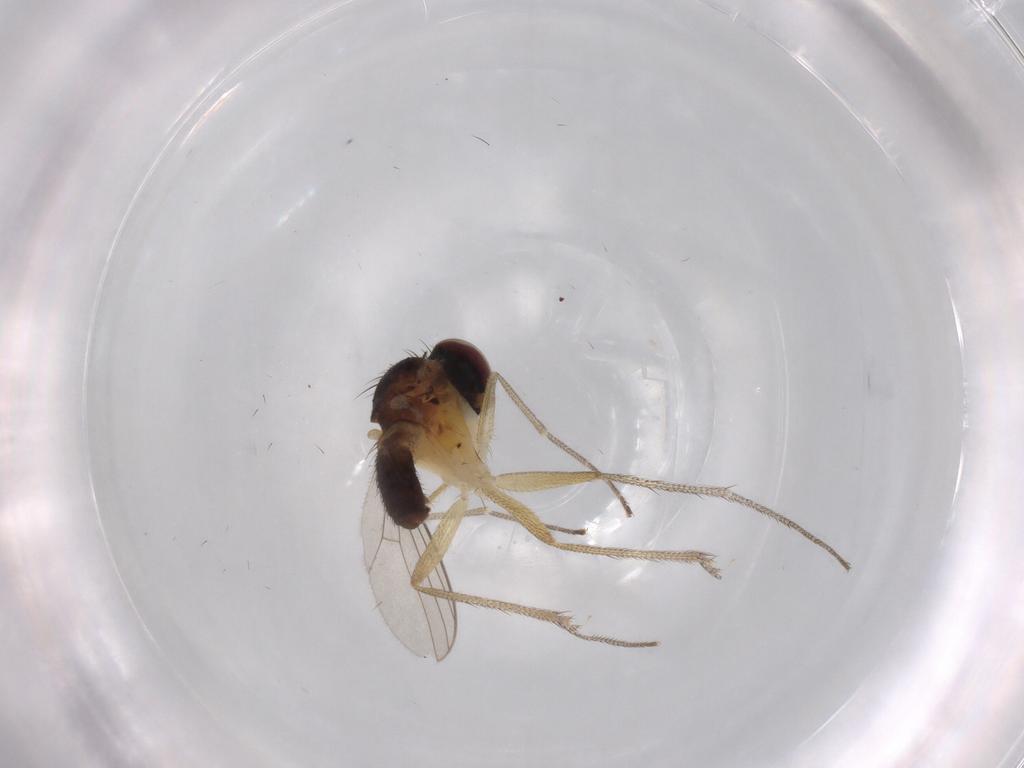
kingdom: Animalia
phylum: Arthropoda
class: Insecta
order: Diptera
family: Dolichopodidae
